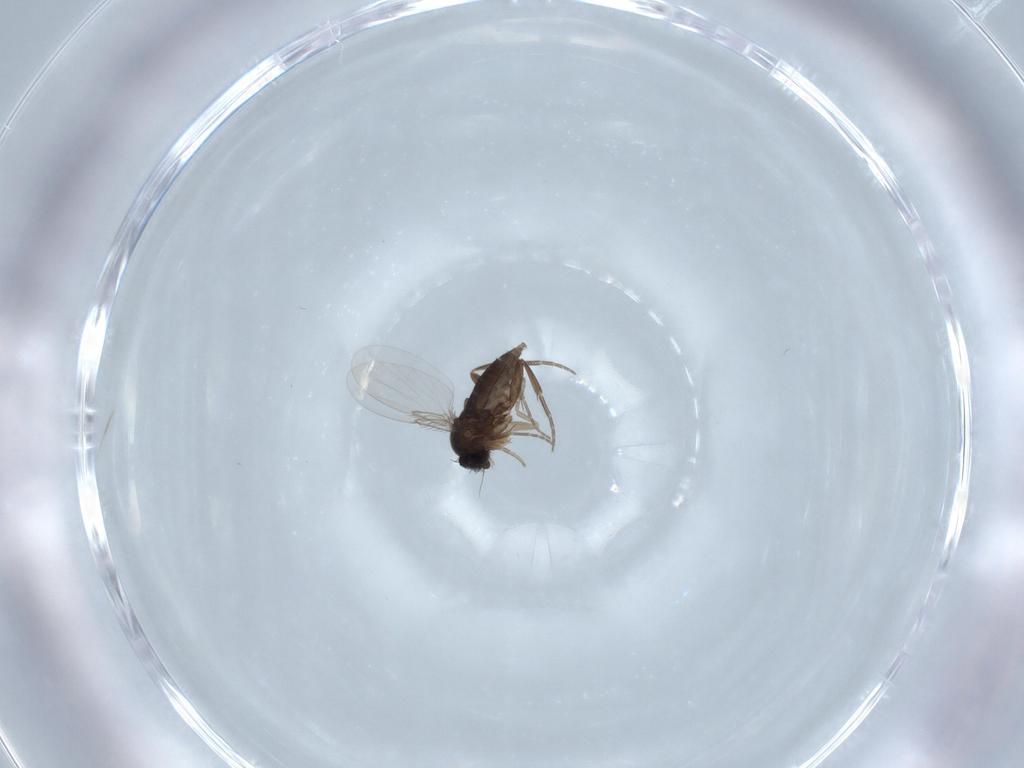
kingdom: Animalia
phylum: Arthropoda
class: Insecta
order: Diptera
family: Phoridae
